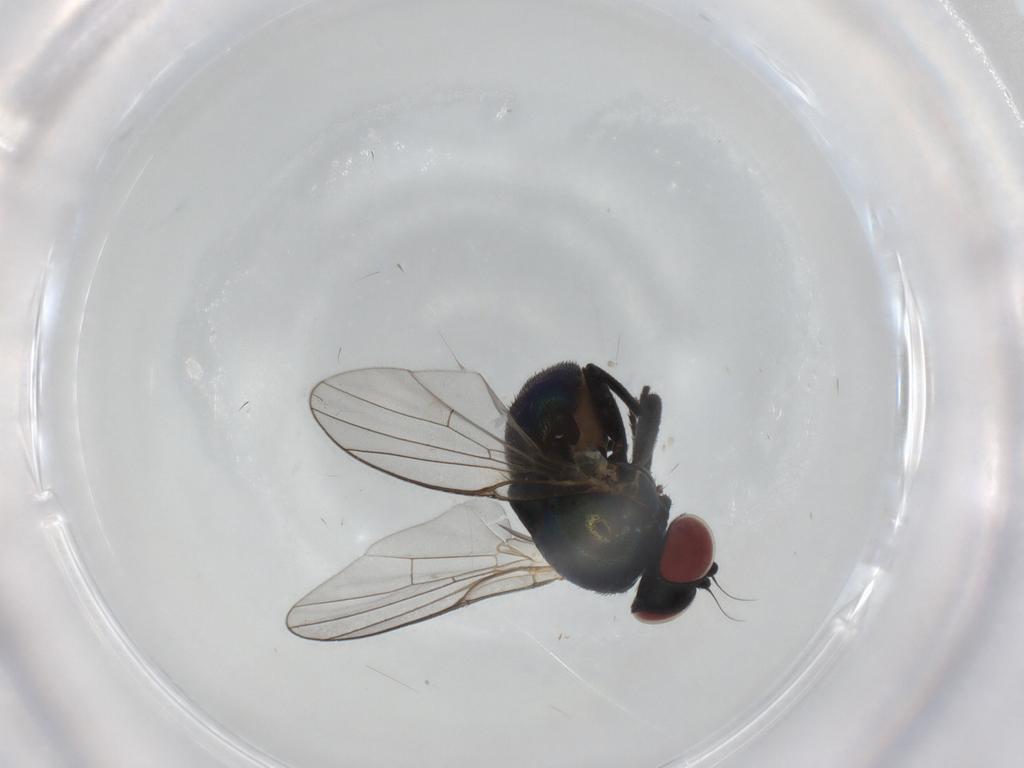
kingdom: Animalia
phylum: Arthropoda
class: Insecta
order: Diptera
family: Agromyzidae
